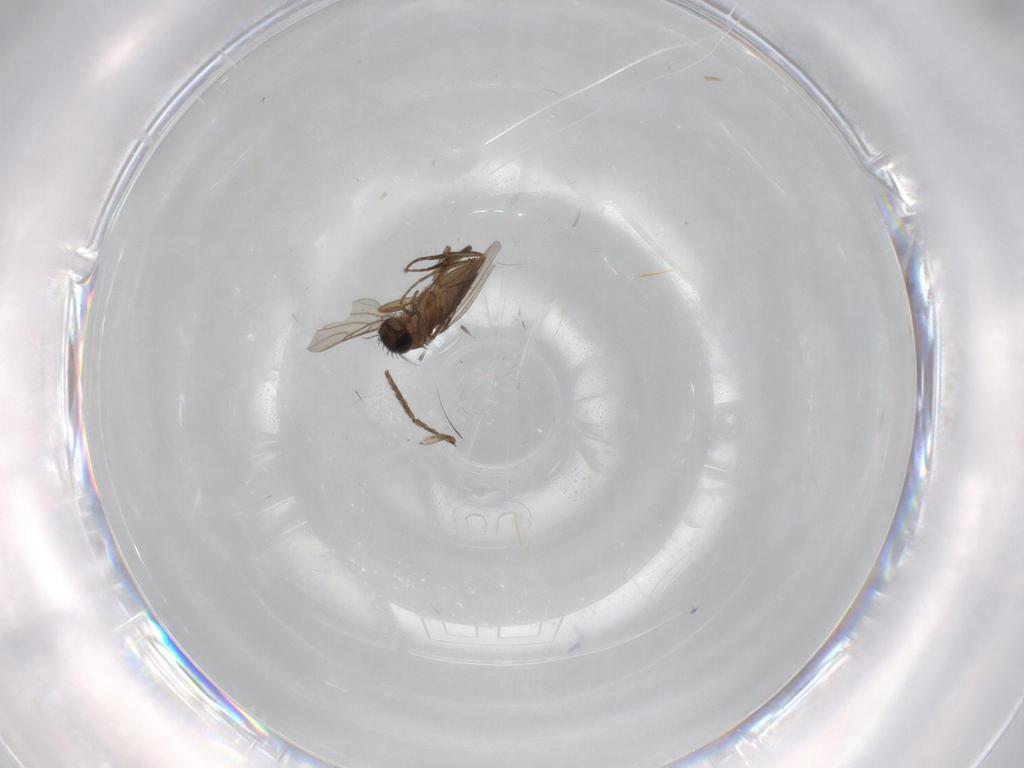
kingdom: Animalia
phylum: Arthropoda
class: Insecta
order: Diptera
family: Phoridae
